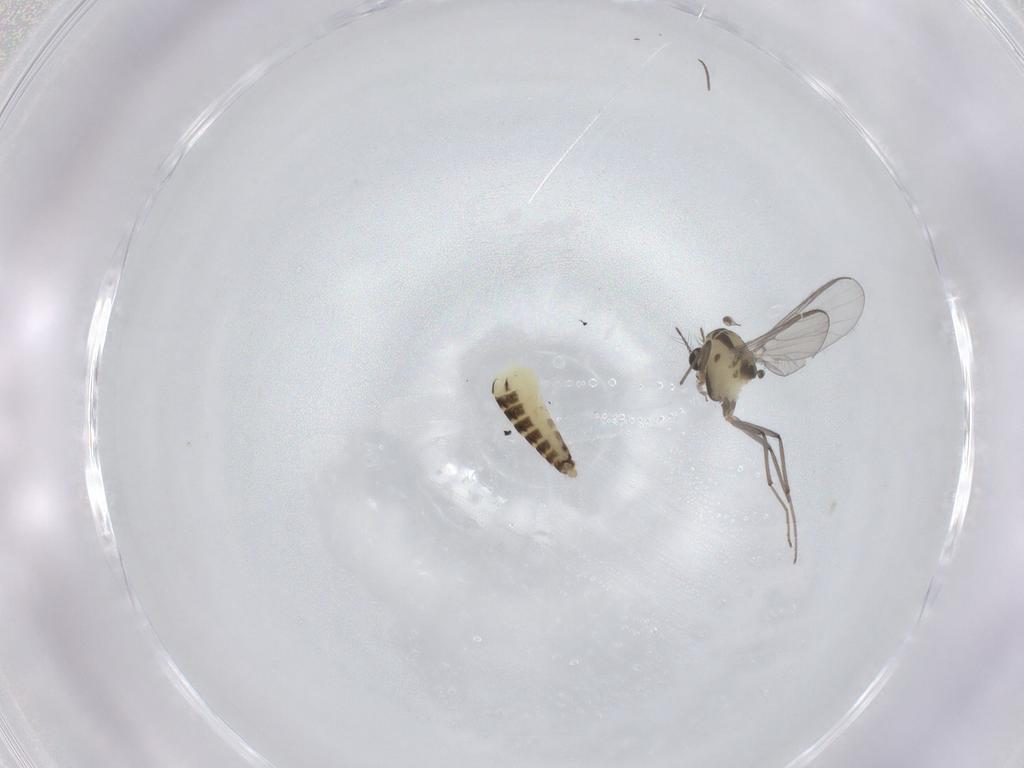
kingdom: Animalia
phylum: Arthropoda
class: Insecta
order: Diptera
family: Chironomidae
